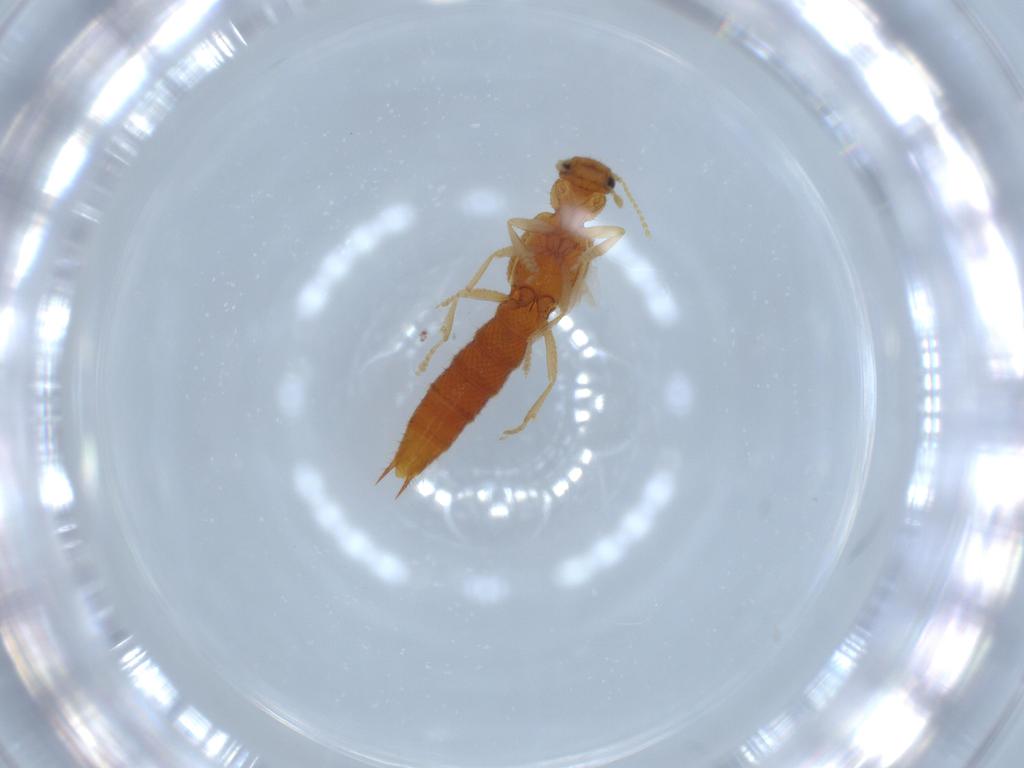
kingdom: Animalia
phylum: Arthropoda
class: Insecta
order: Coleoptera
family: Staphylinidae
